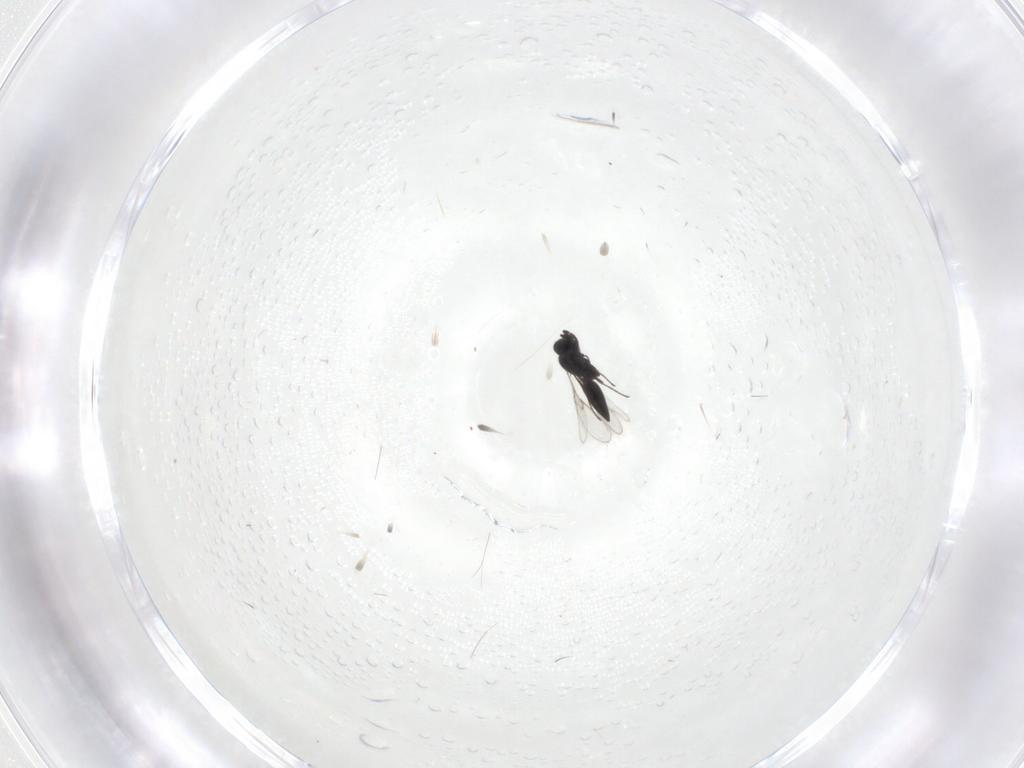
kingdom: Animalia
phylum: Arthropoda
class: Insecta
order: Hymenoptera
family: Scelionidae
